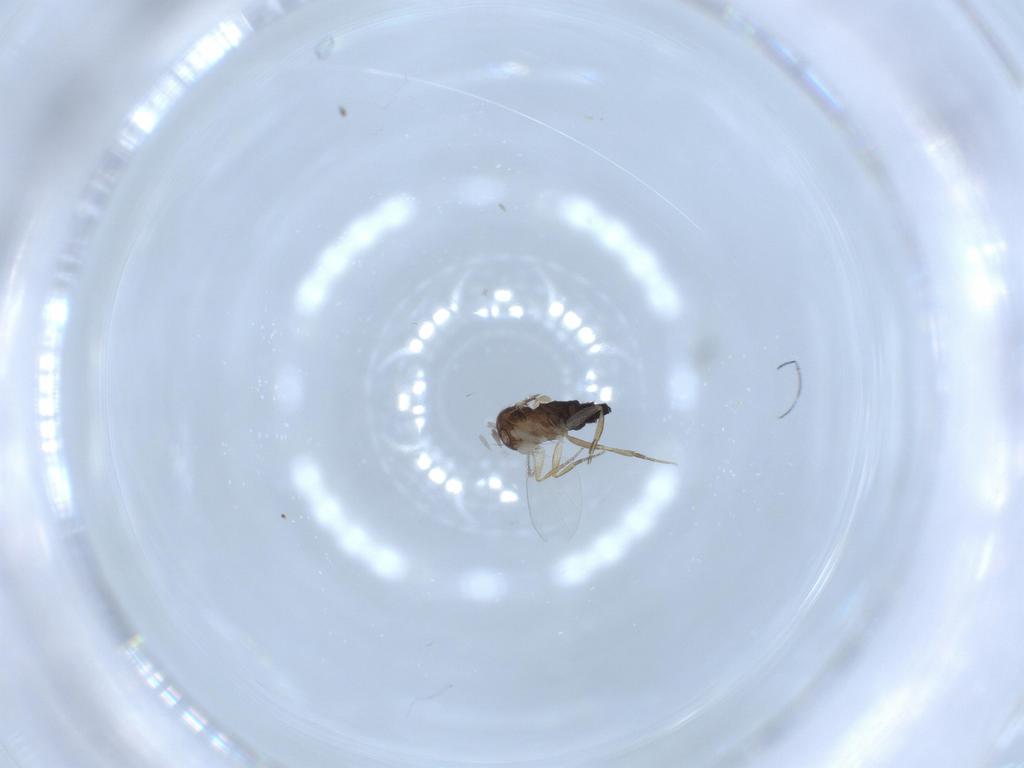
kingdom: Animalia
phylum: Arthropoda
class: Insecta
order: Diptera
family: Phoridae
